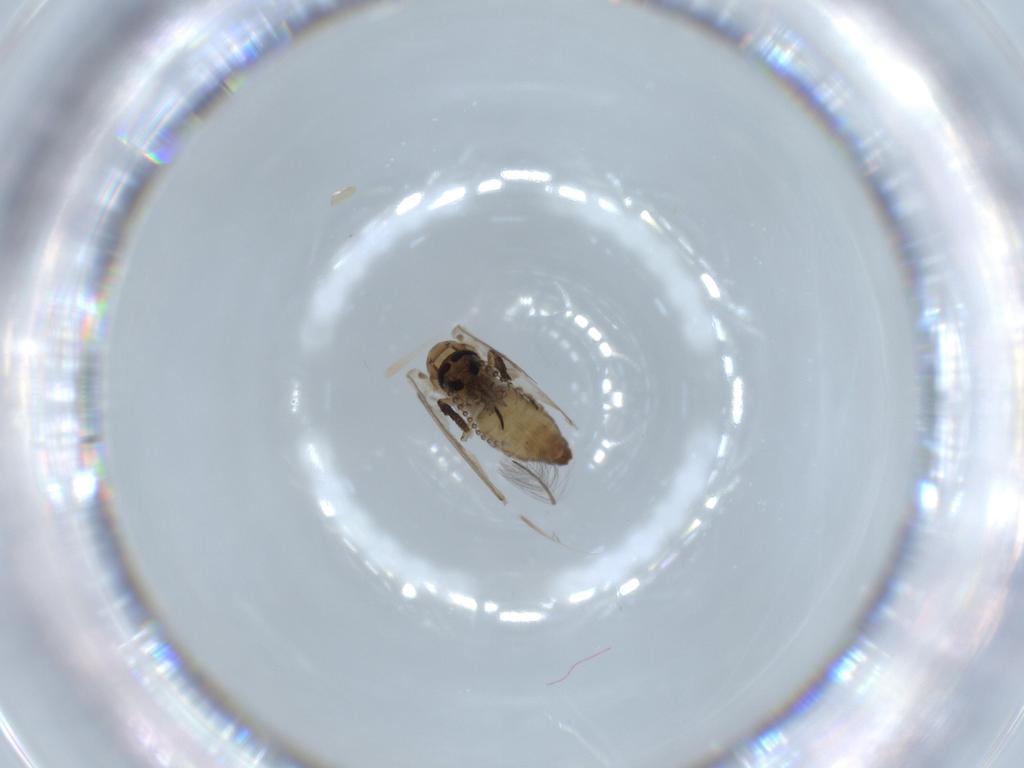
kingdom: Animalia
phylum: Arthropoda
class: Insecta
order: Diptera
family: Psychodidae
